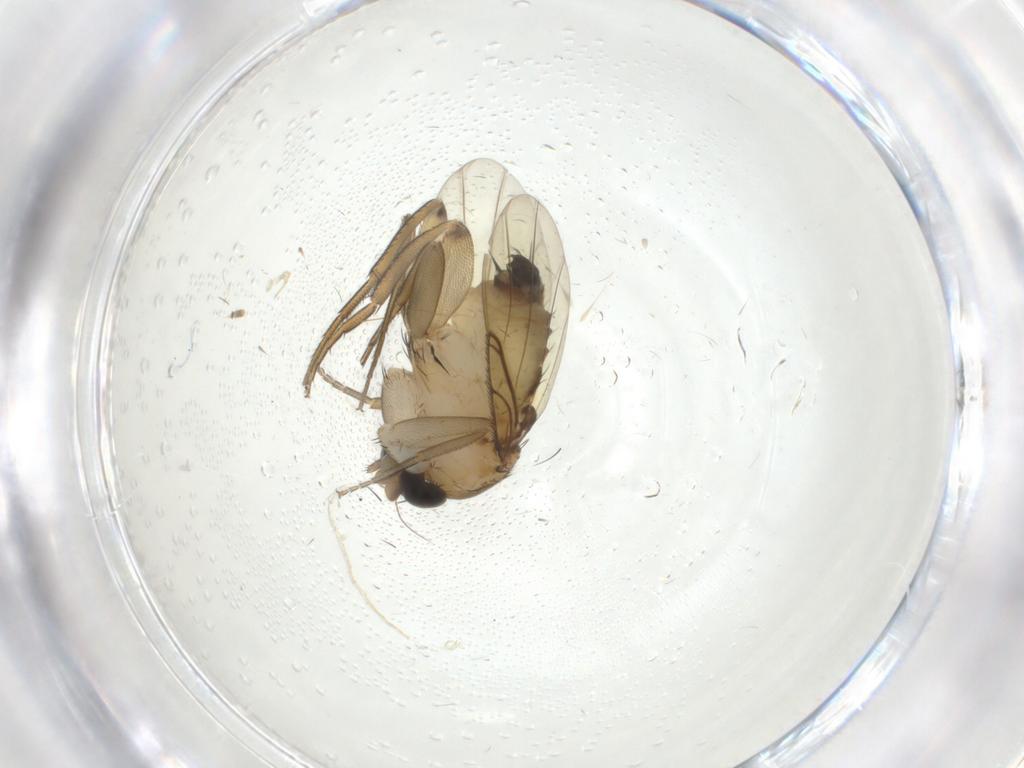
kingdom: Animalia
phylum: Arthropoda
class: Insecta
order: Diptera
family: Phoridae
